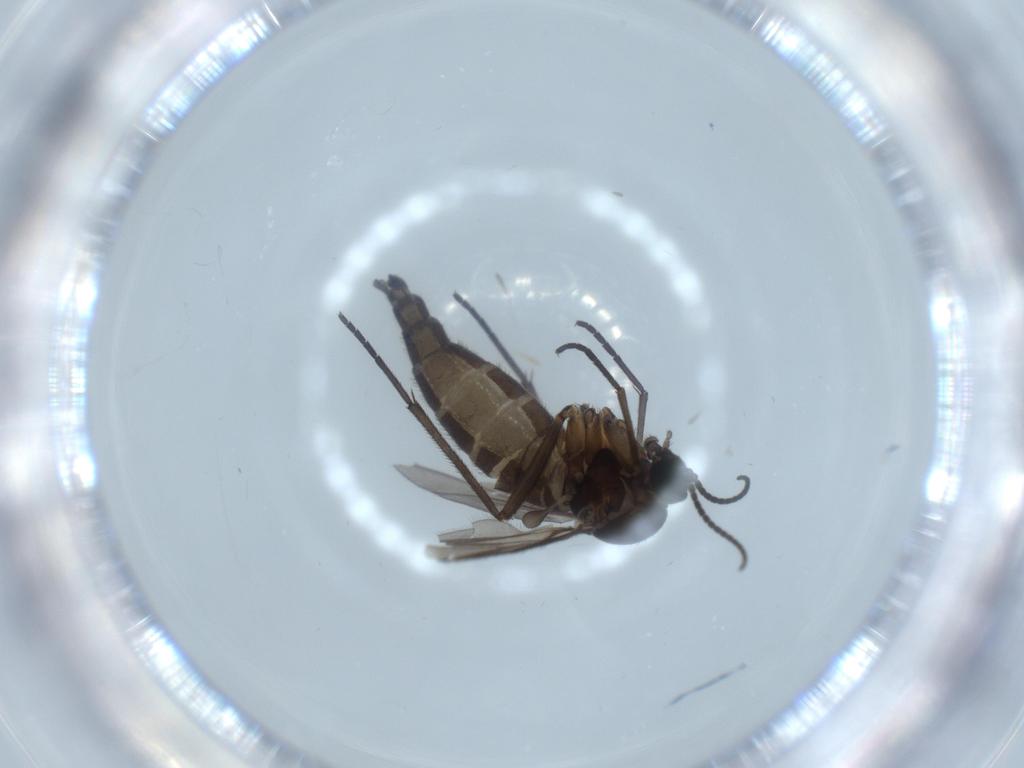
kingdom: Animalia
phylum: Arthropoda
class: Insecta
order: Diptera
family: Sciaridae
